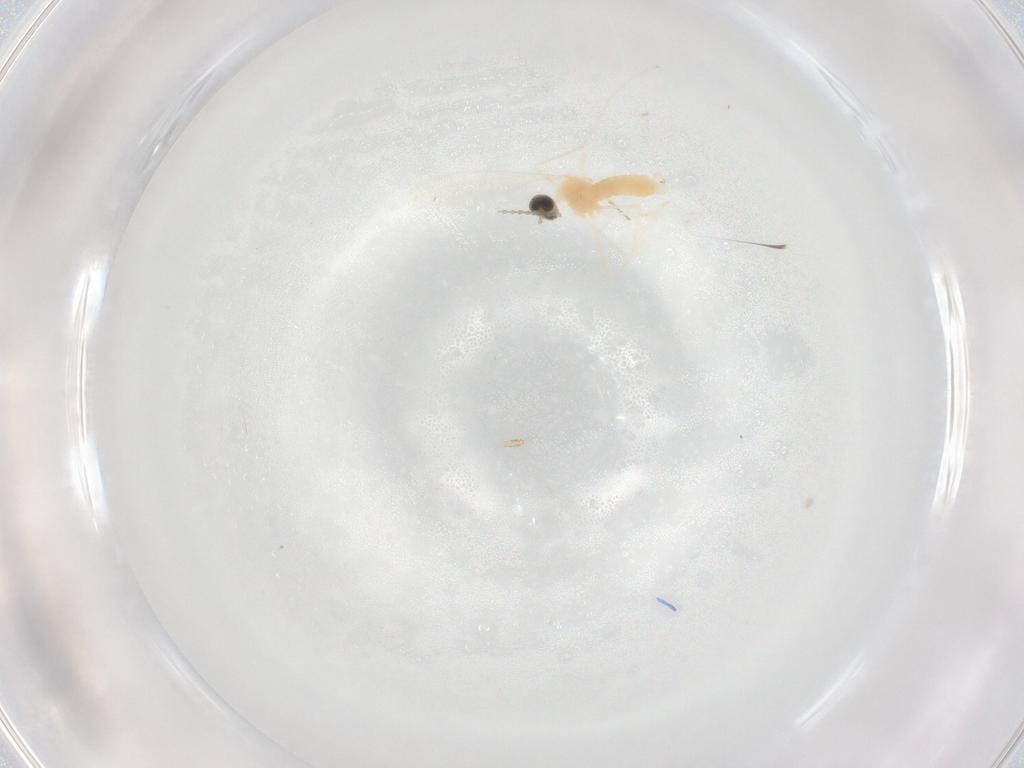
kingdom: Animalia
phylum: Arthropoda
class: Insecta
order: Diptera
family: Cecidomyiidae
